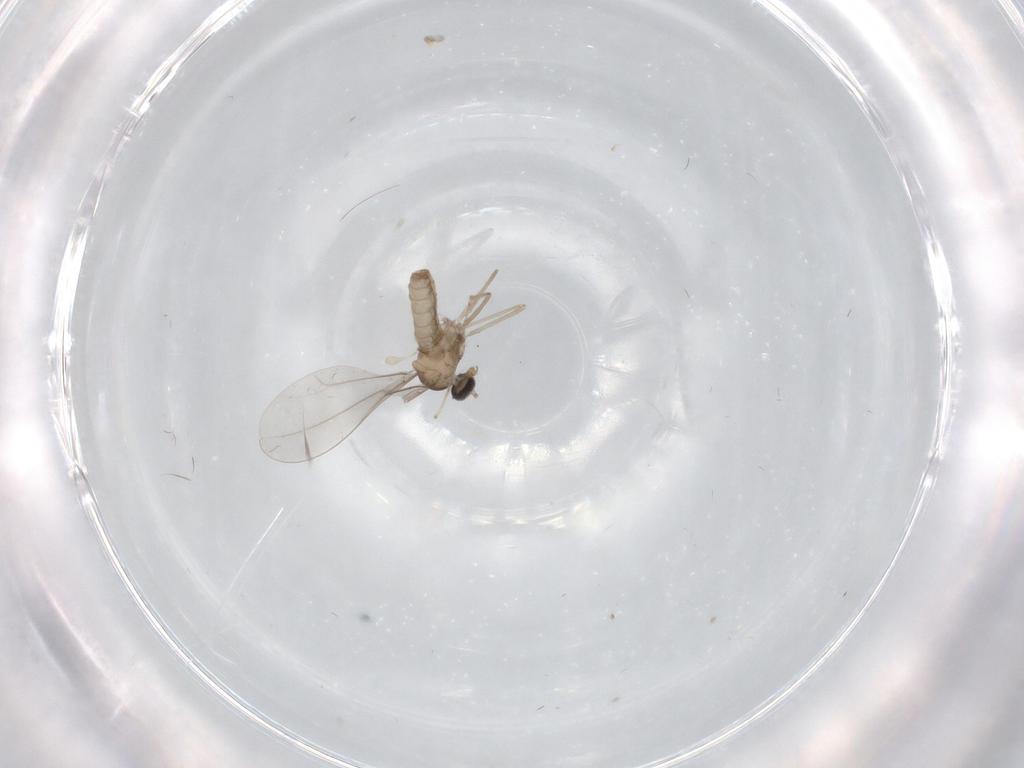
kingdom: Animalia
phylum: Arthropoda
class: Insecta
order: Diptera
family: Cecidomyiidae
